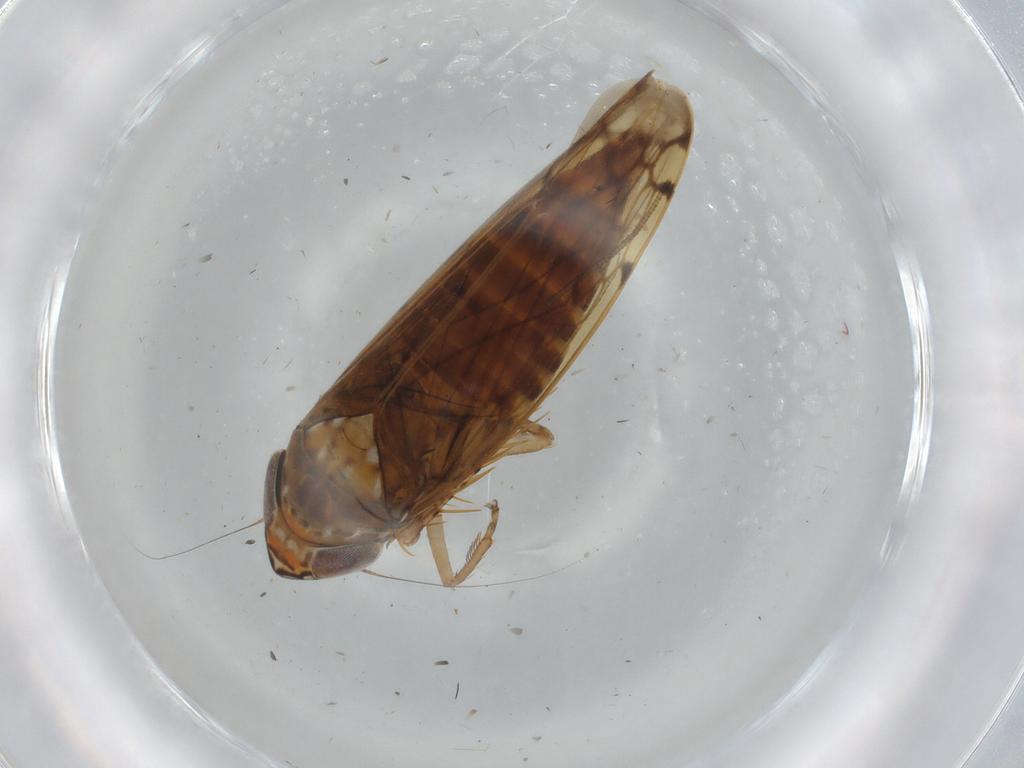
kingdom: Animalia
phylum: Arthropoda
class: Insecta
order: Hemiptera
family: Cicadellidae
